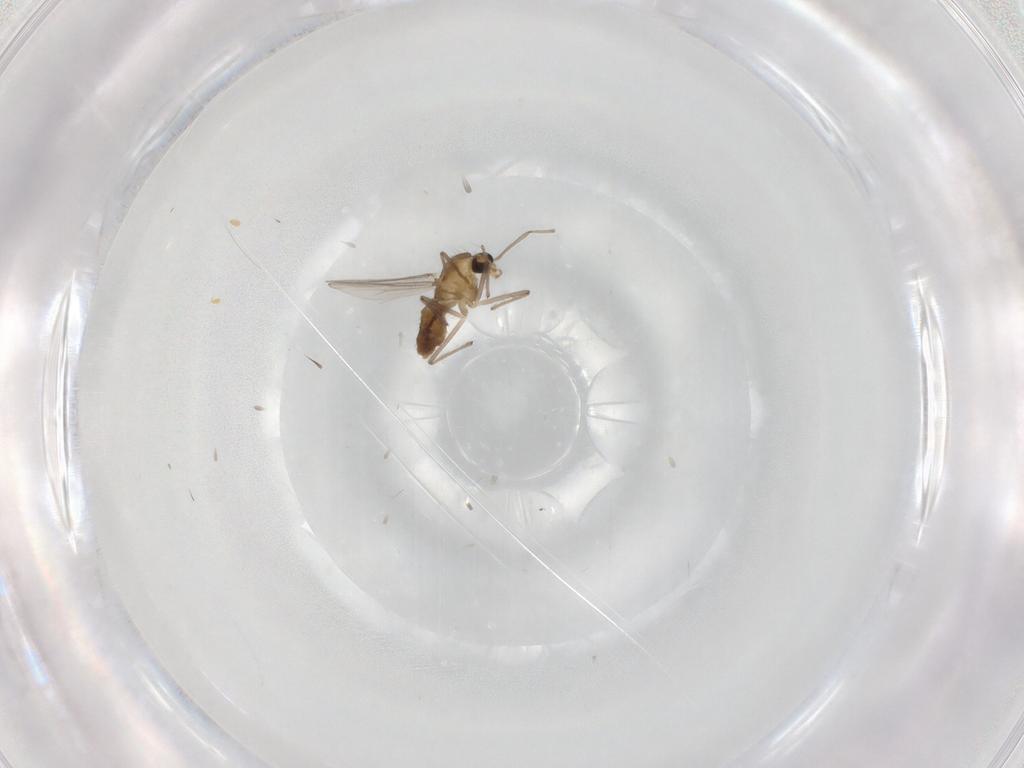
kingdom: Animalia
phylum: Arthropoda
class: Insecta
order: Diptera
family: Chironomidae
